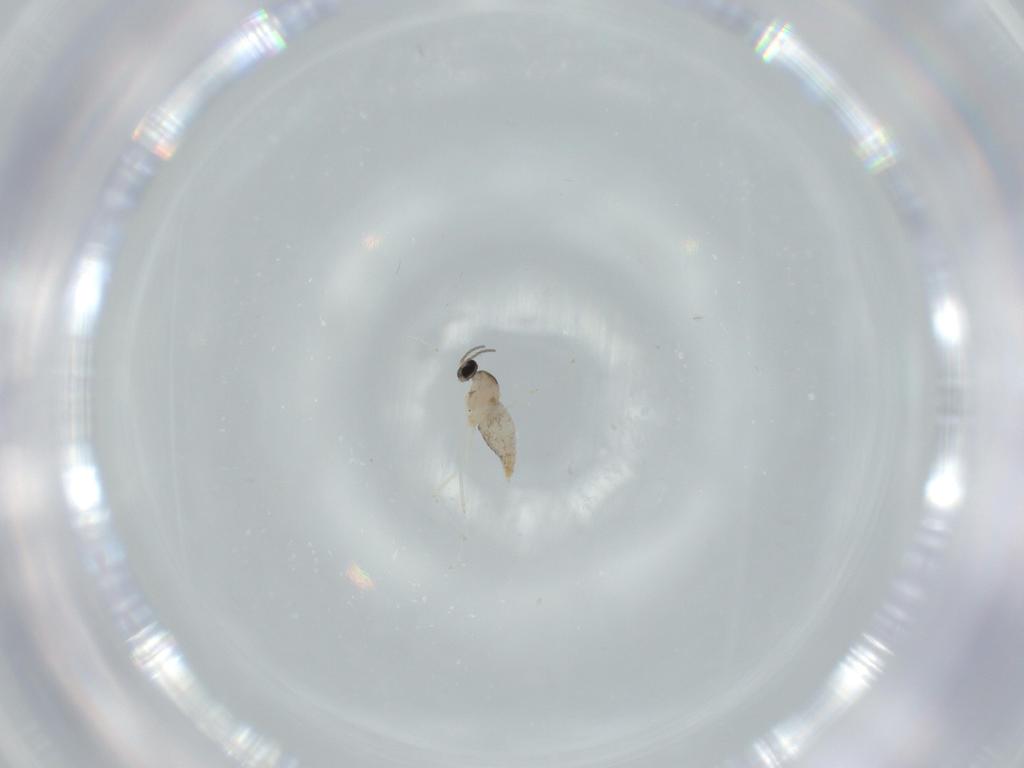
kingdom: Animalia
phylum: Arthropoda
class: Insecta
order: Diptera
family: Cecidomyiidae
